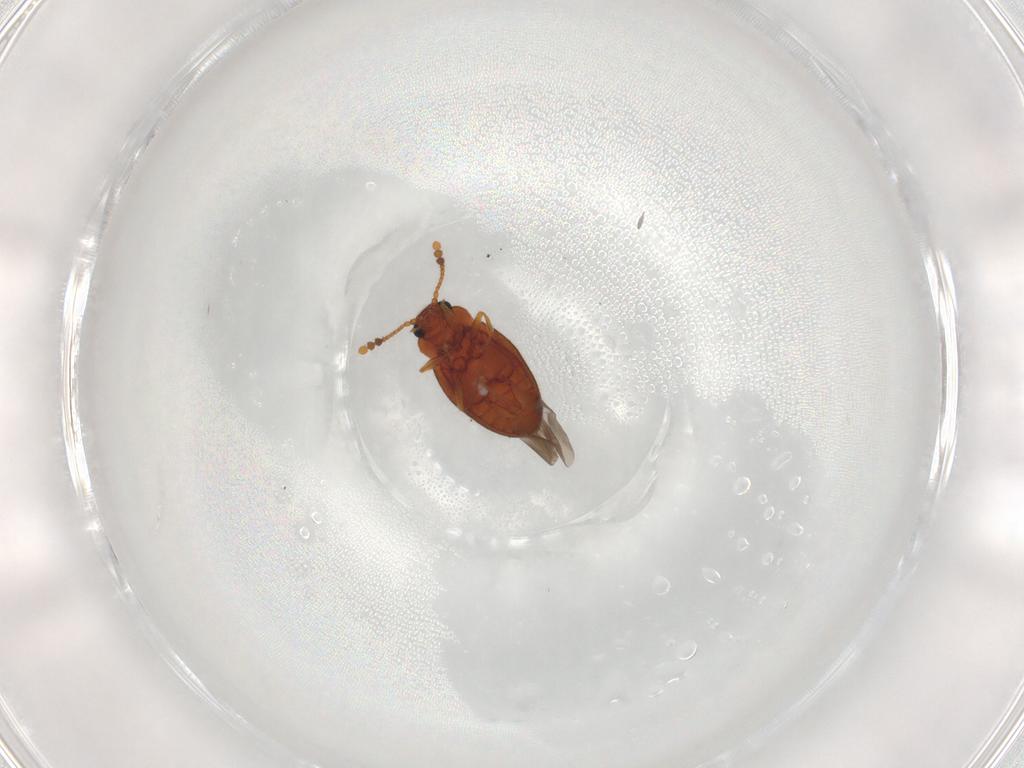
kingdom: Animalia
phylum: Arthropoda
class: Insecta
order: Coleoptera
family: Erotylidae
